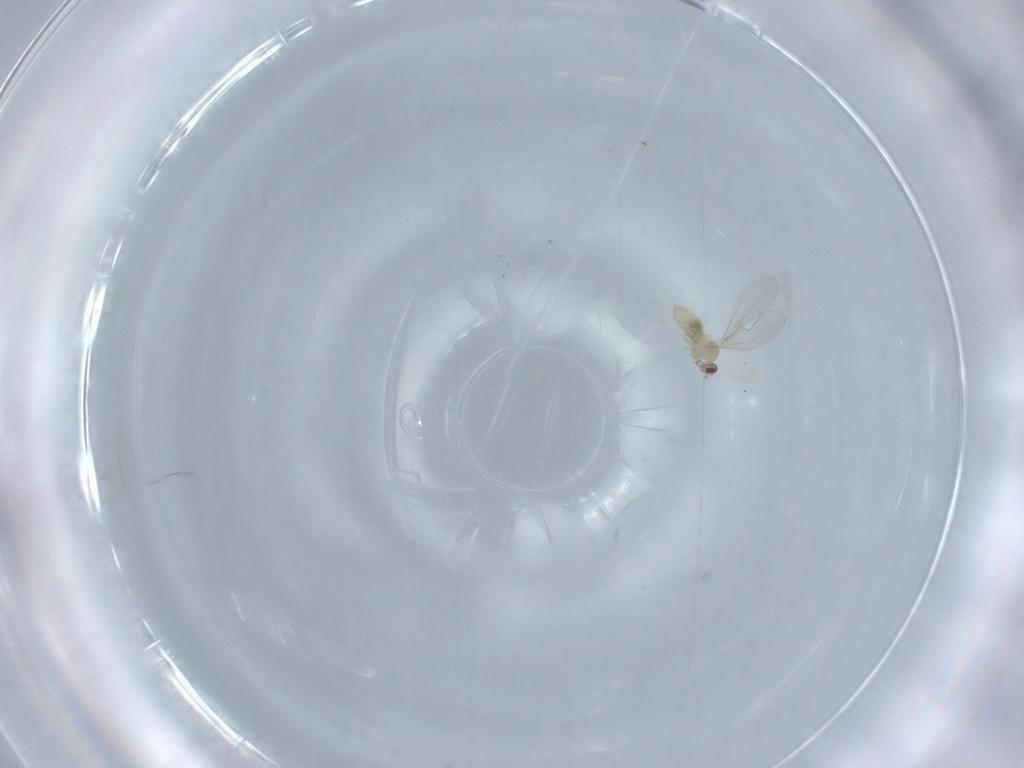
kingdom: Animalia
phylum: Arthropoda
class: Insecta
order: Diptera
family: Cecidomyiidae
